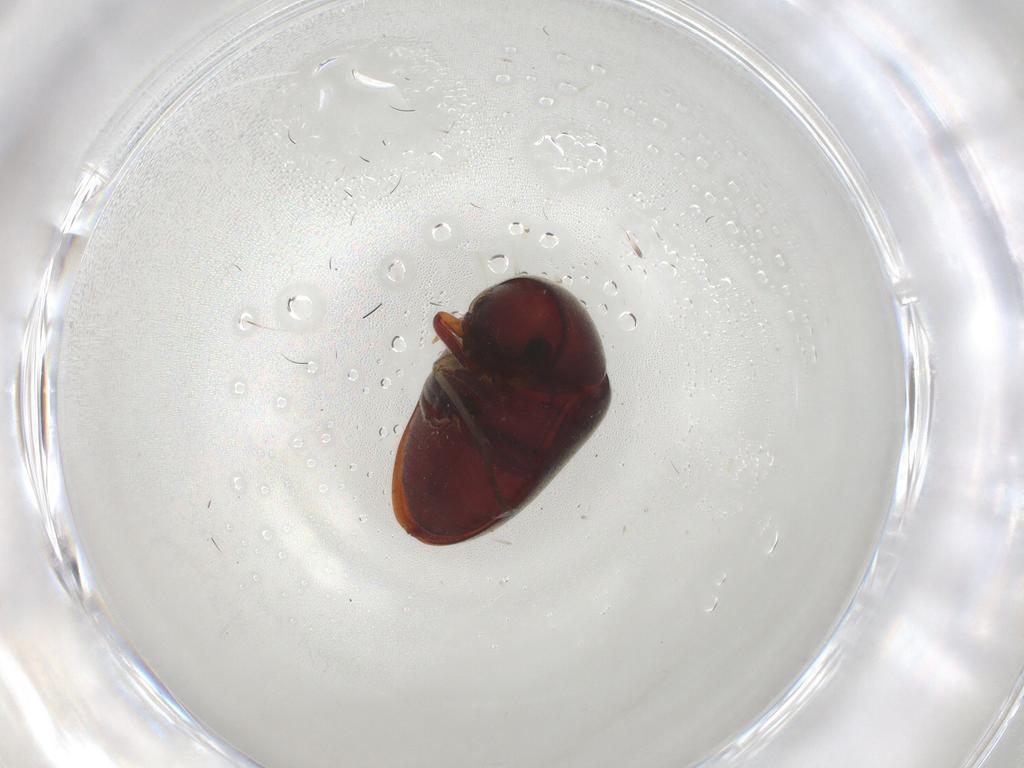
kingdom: Animalia
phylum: Arthropoda
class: Insecta
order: Coleoptera
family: Ptinidae
